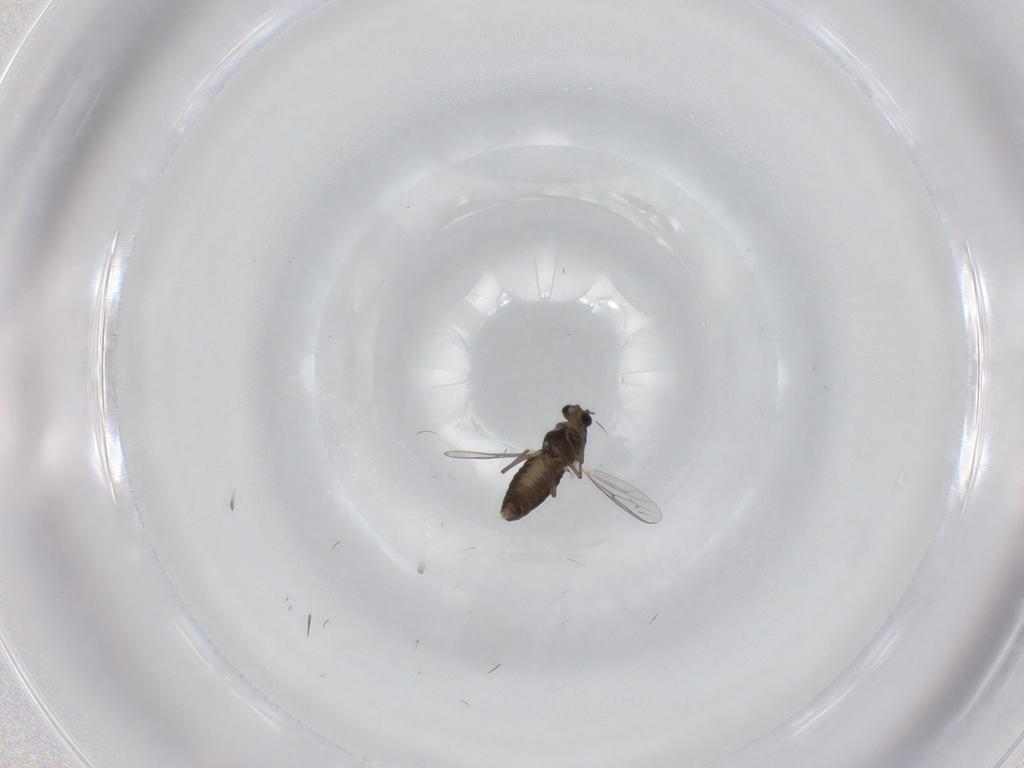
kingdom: Animalia
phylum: Arthropoda
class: Insecta
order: Diptera
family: Chironomidae
